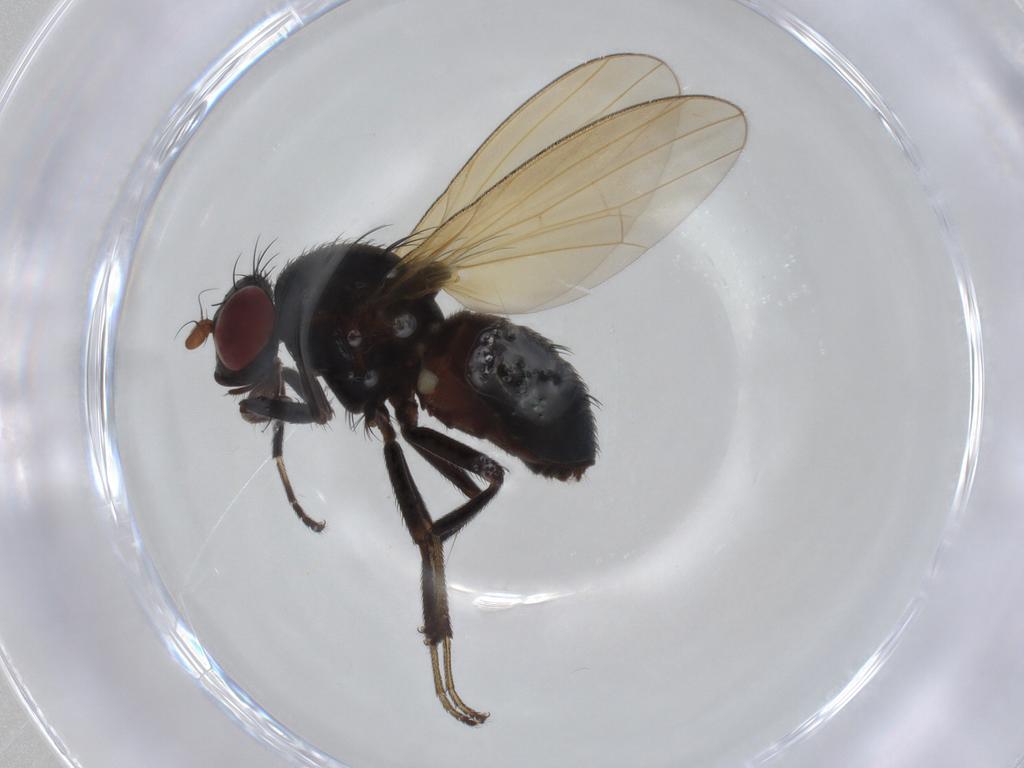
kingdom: Animalia
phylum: Arthropoda
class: Insecta
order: Diptera
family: Lauxaniidae
